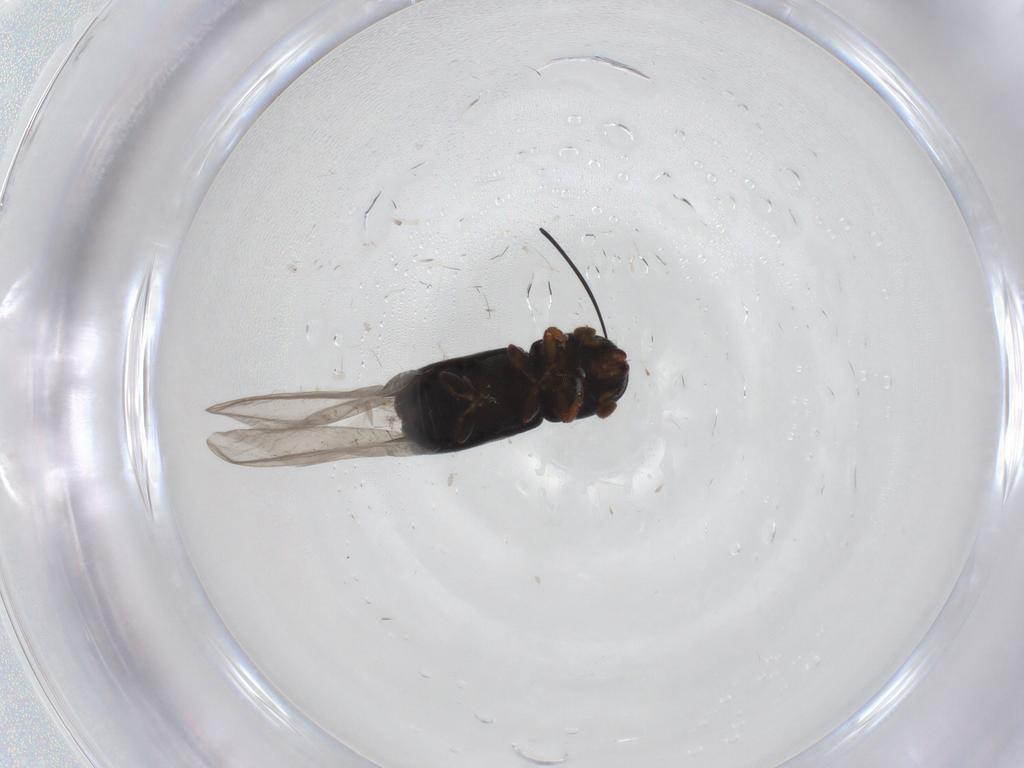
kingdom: Animalia
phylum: Arthropoda
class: Insecta
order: Coleoptera
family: Curculionidae
